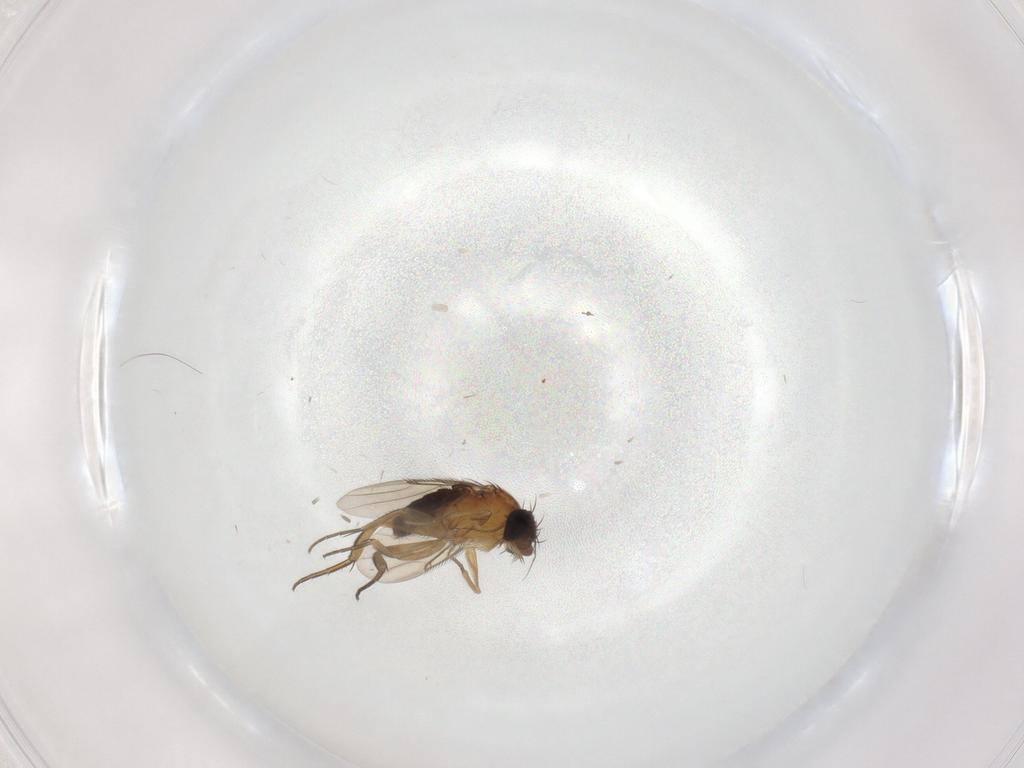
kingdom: Animalia
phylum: Arthropoda
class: Insecta
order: Diptera
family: Phoridae
